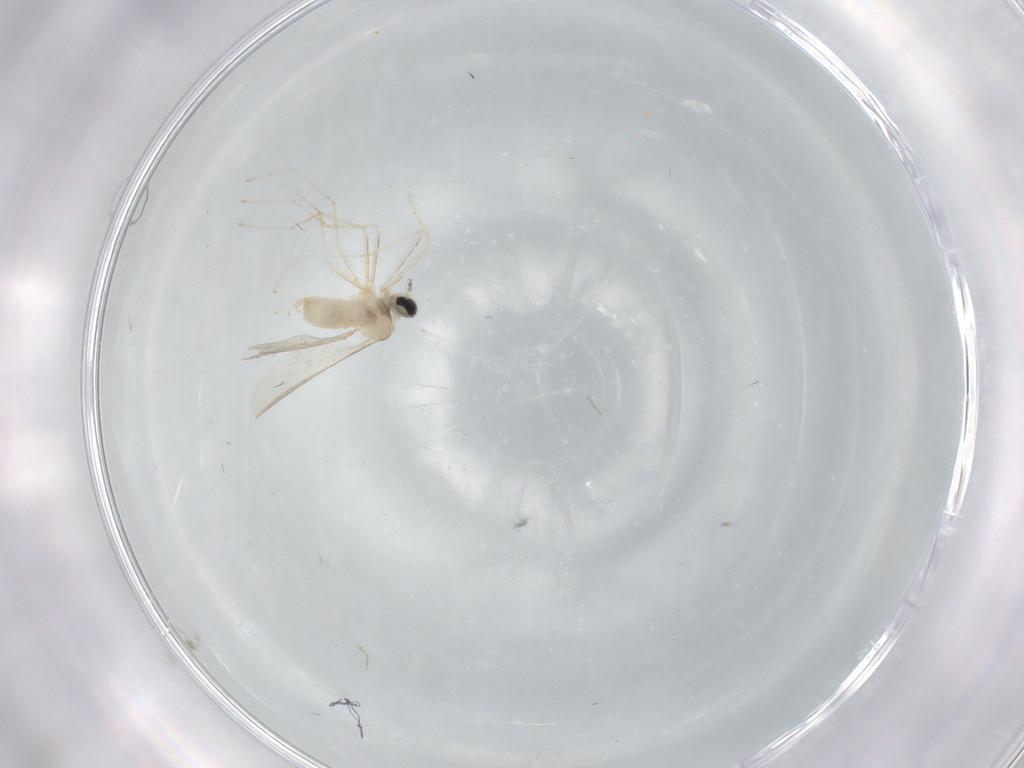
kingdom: Animalia
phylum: Arthropoda
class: Insecta
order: Diptera
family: Cecidomyiidae
